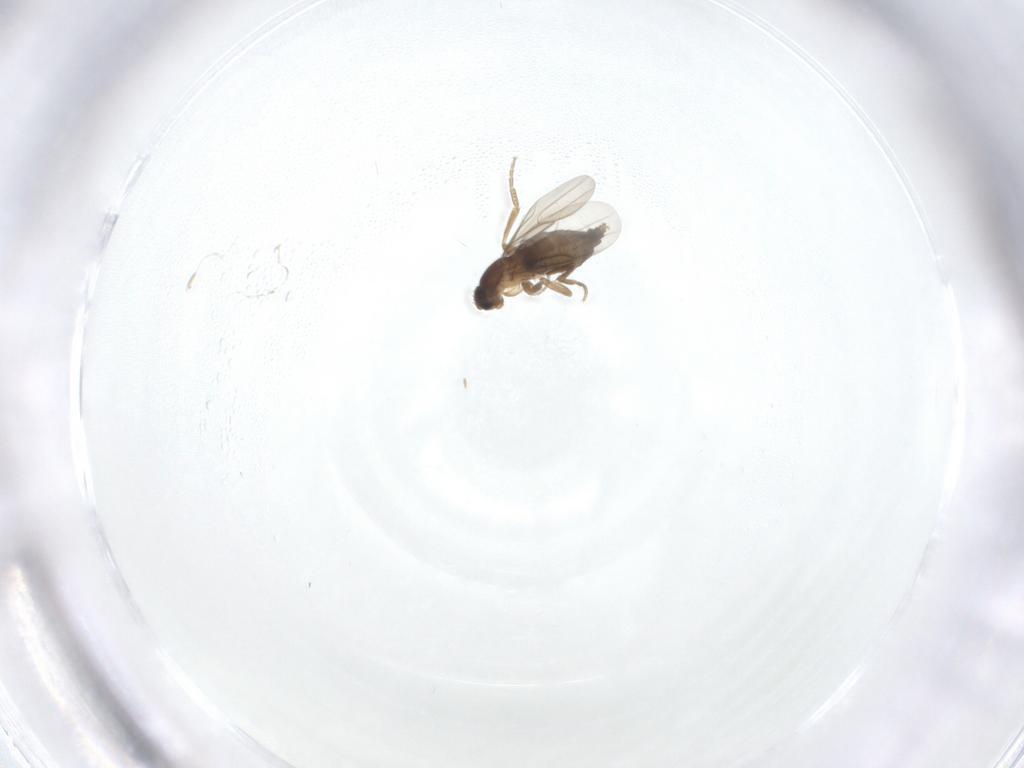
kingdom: Animalia
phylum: Arthropoda
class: Insecta
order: Diptera
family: Phoridae
